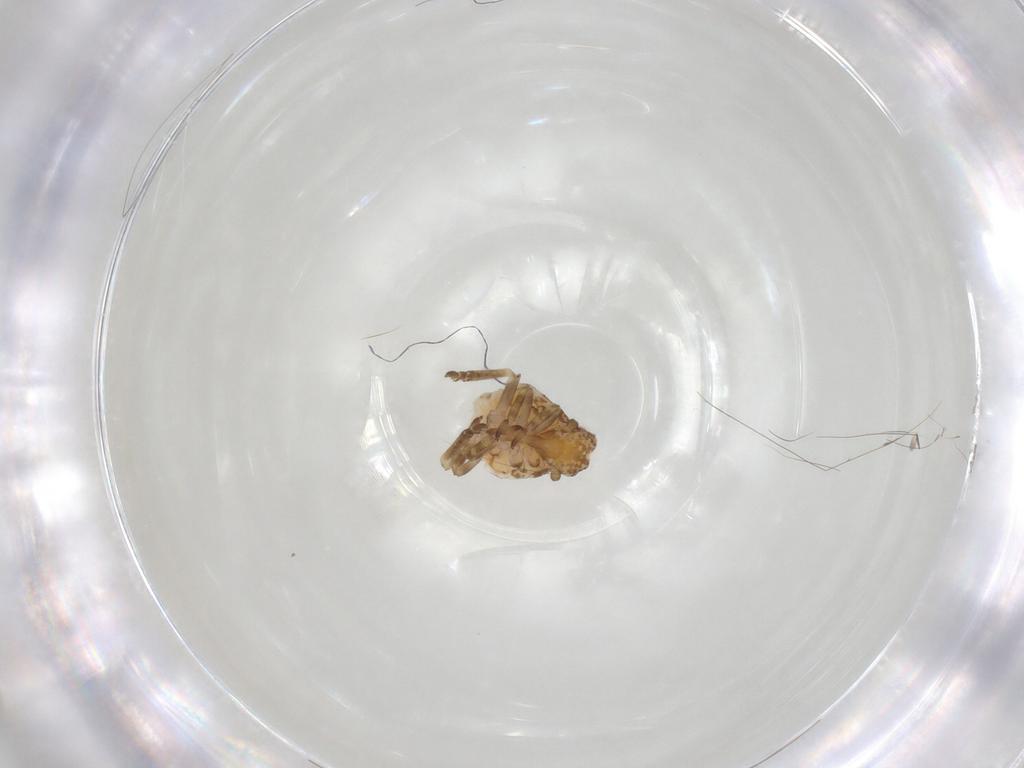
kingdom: Animalia
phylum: Arthropoda
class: Insecta
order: Hemiptera
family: Ricaniidae
